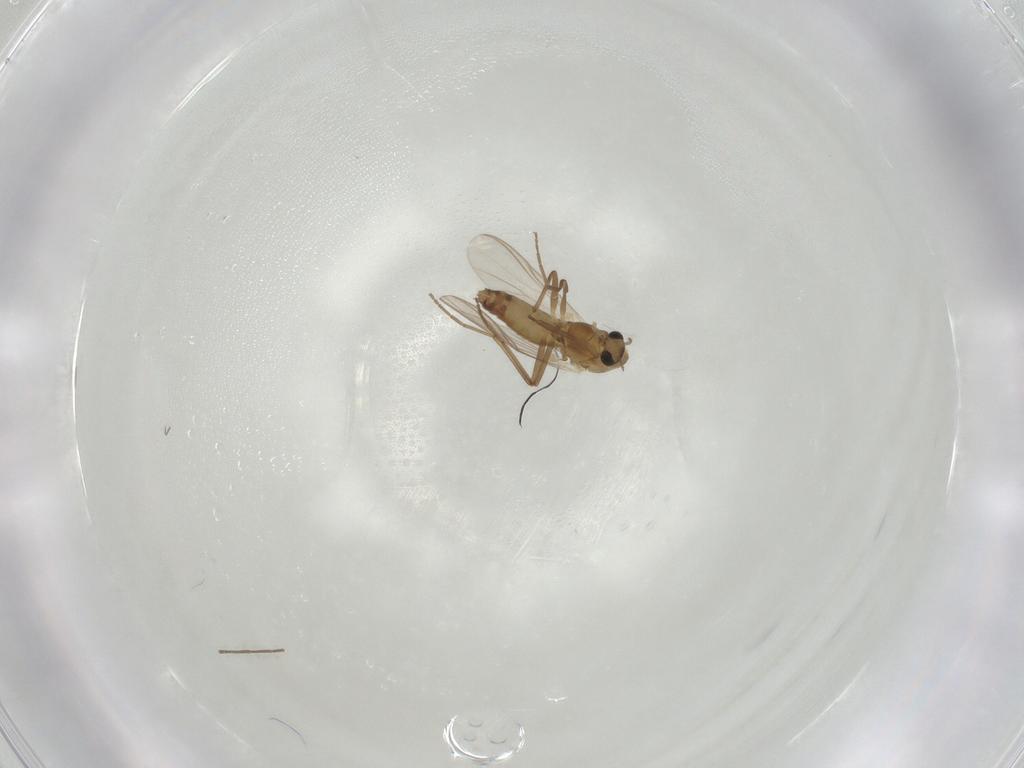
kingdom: Animalia
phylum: Arthropoda
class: Insecta
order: Diptera
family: Chironomidae
